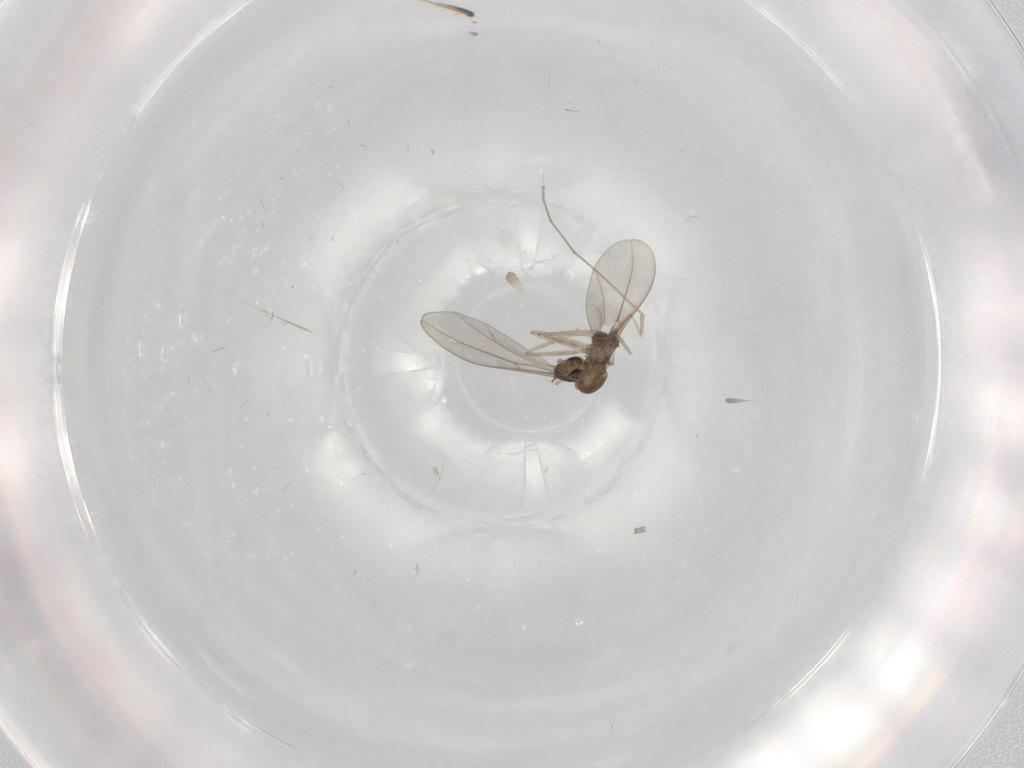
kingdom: Animalia
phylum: Arthropoda
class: Insecta
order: Diptera
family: Cecidomyiidae
